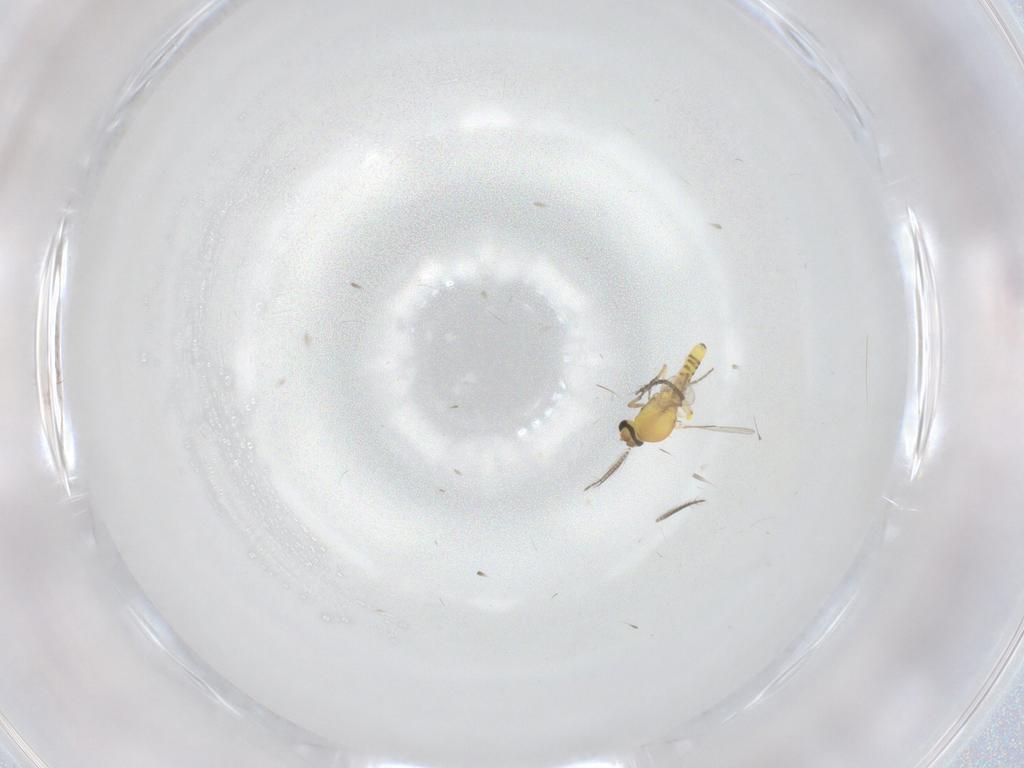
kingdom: Animalia
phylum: Arthropoda
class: Insecta
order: Diptera
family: Ceratopogonidae
